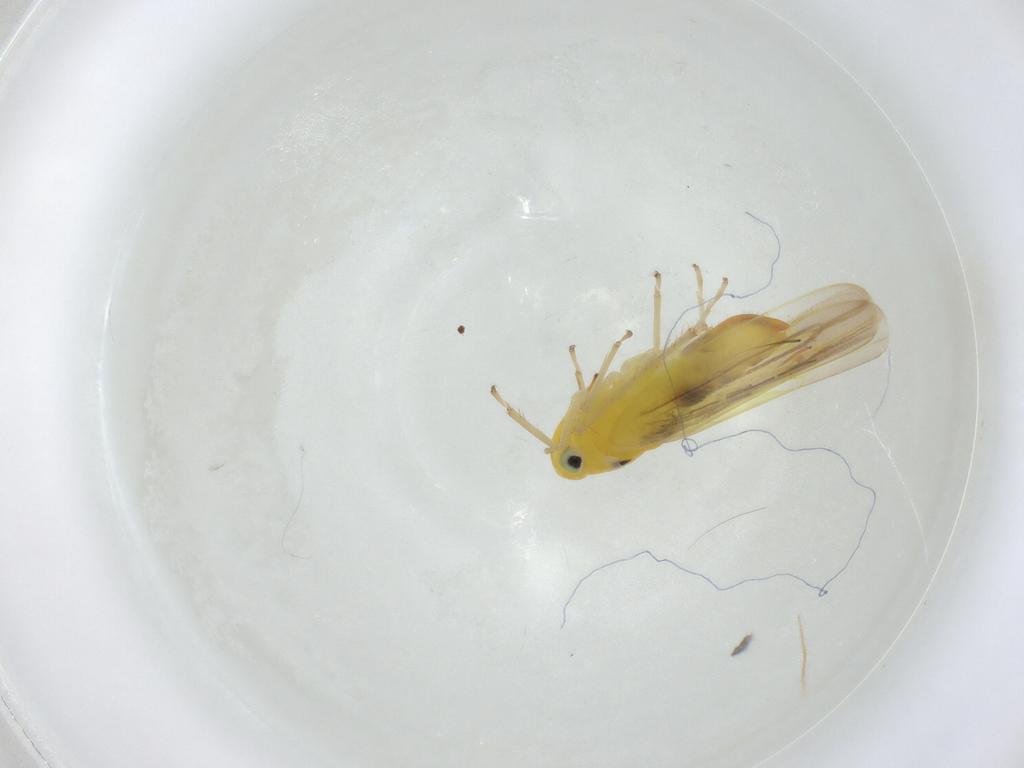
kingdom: Animalia
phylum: Arthropoda
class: Insecta
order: Hemiptera
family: Cicadellidae
